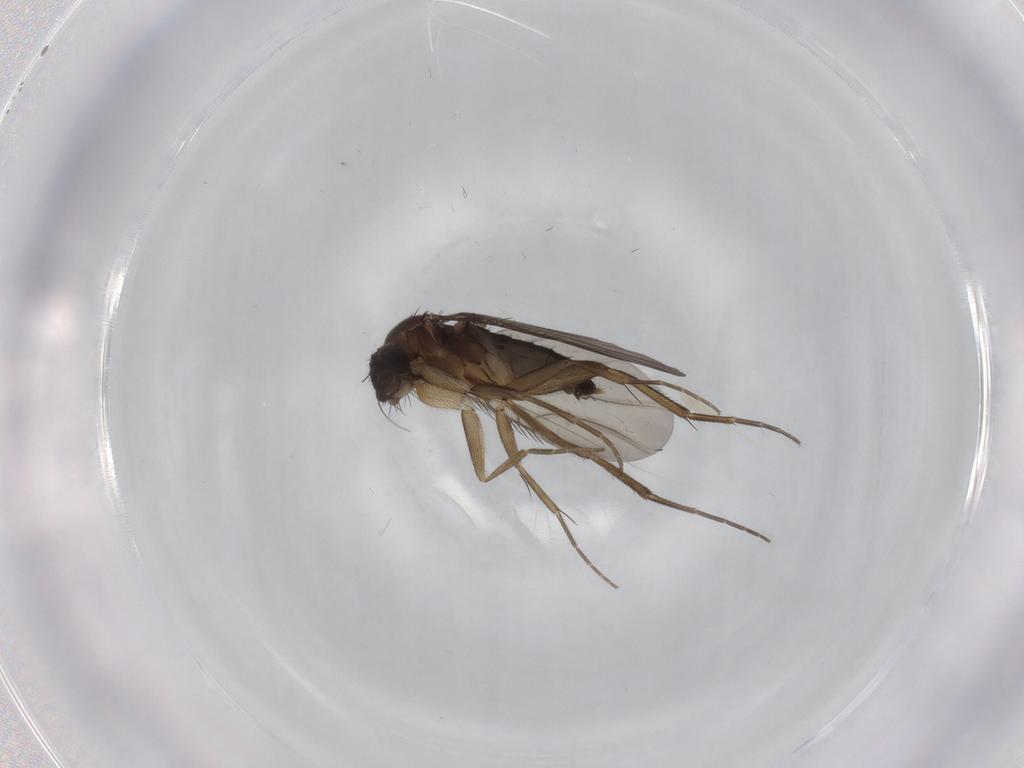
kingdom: Animalia
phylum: Arthropoda
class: Insecta
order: Diptera
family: Phoridae
